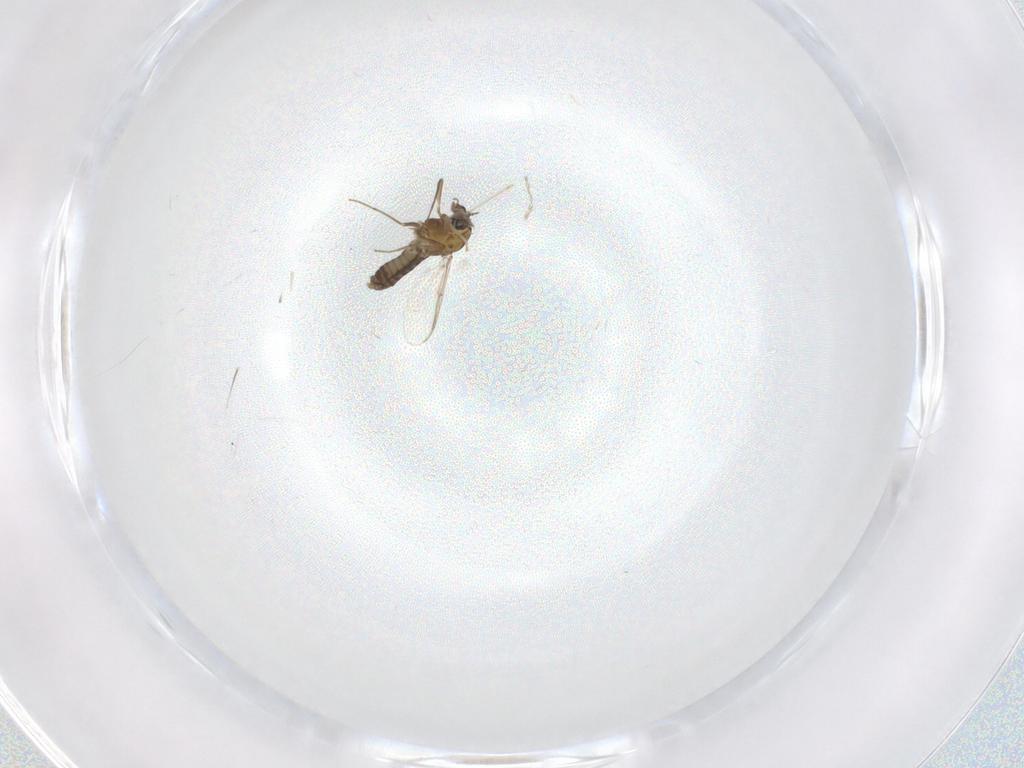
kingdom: Animalia
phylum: Arthropoda
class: Insecta
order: Diptera
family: Chironomidae
